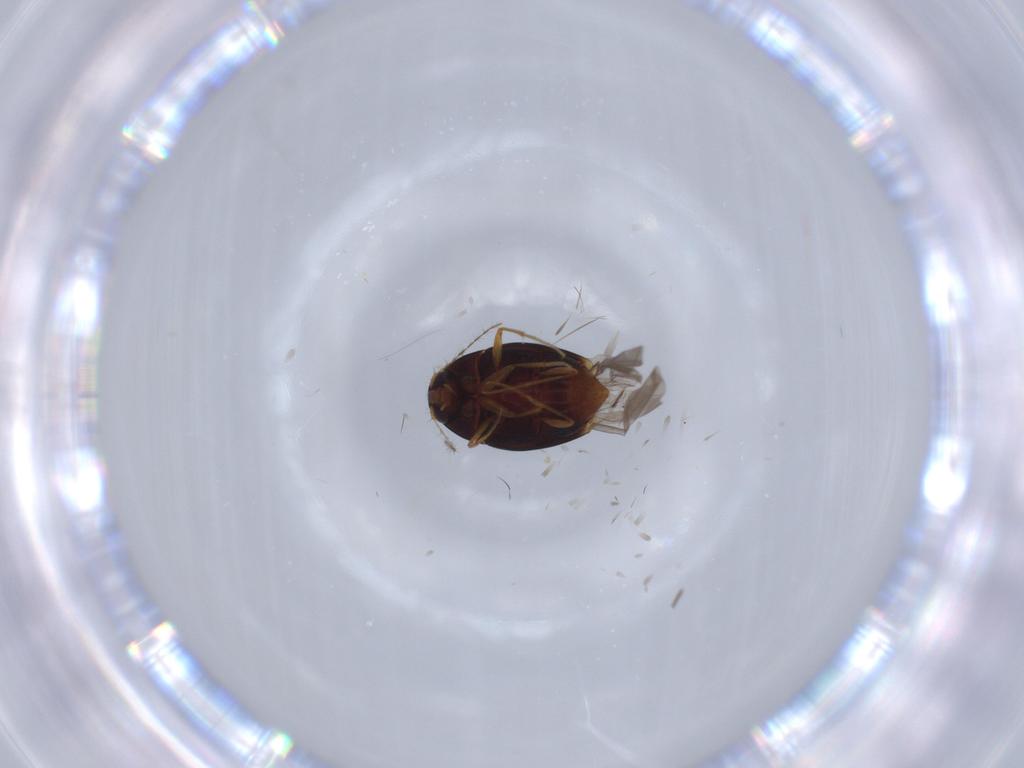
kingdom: Animalia
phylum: Arthropoda
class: Insecta
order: Coleoptera
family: Staphylinidae
